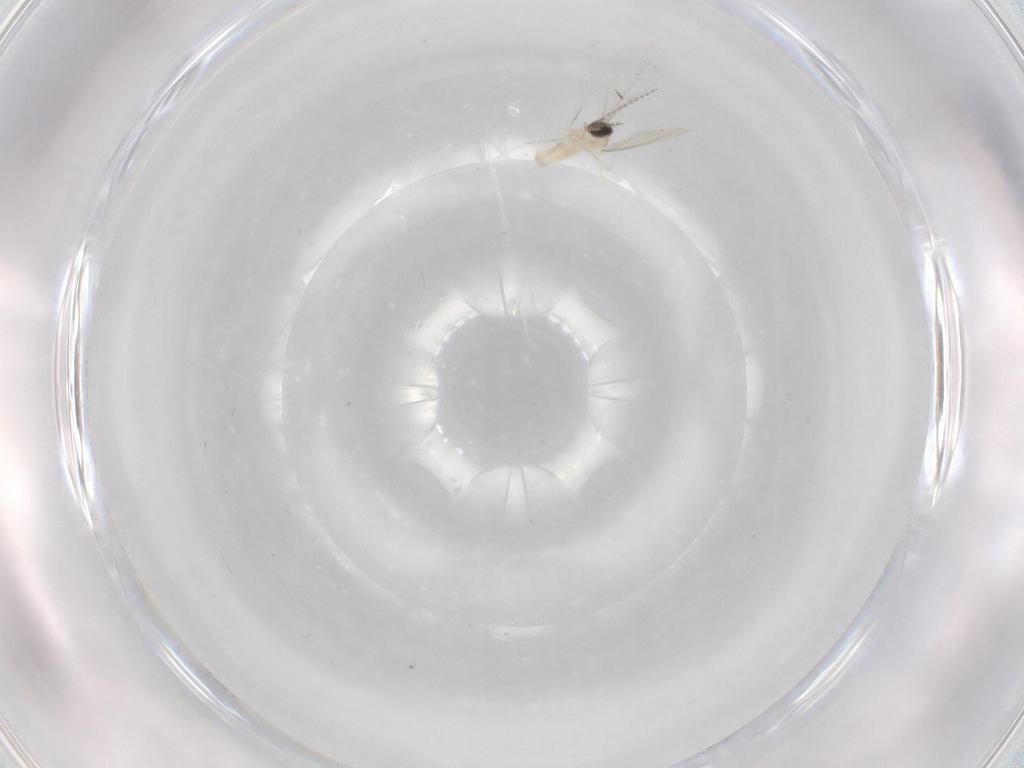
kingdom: Animalia
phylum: Arthropoda
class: Insecta
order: Diptera
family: Cecidomyiidae
